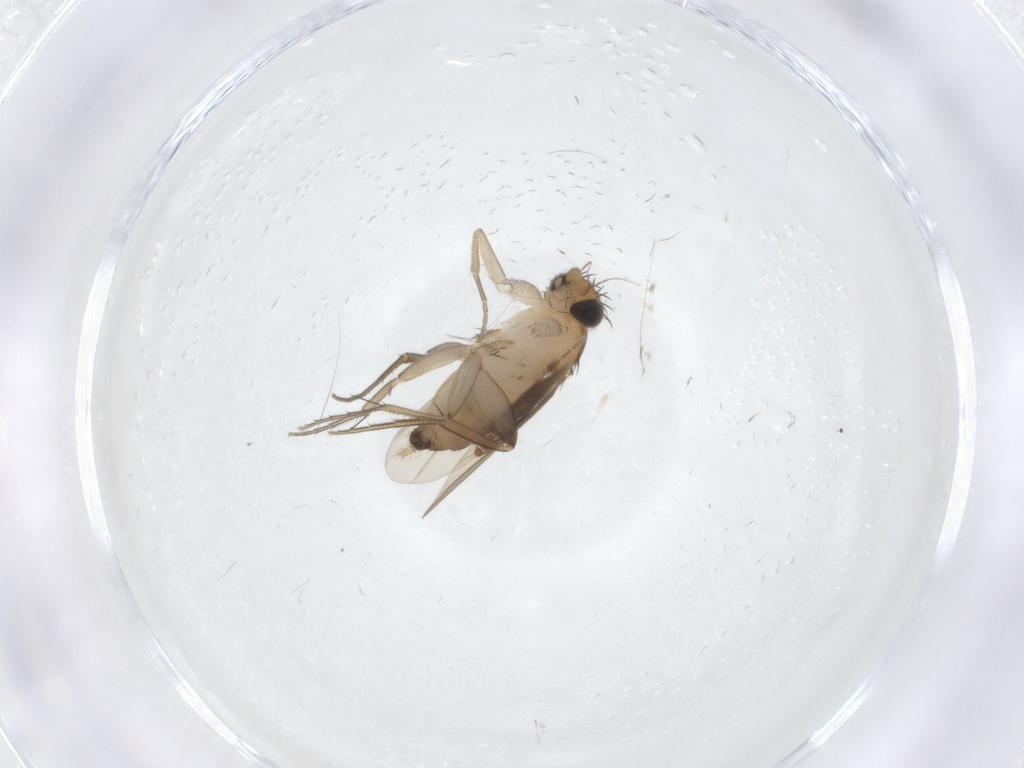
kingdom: Animalia
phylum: Arthropoda
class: Insecta
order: Diptera
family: Phoridae
